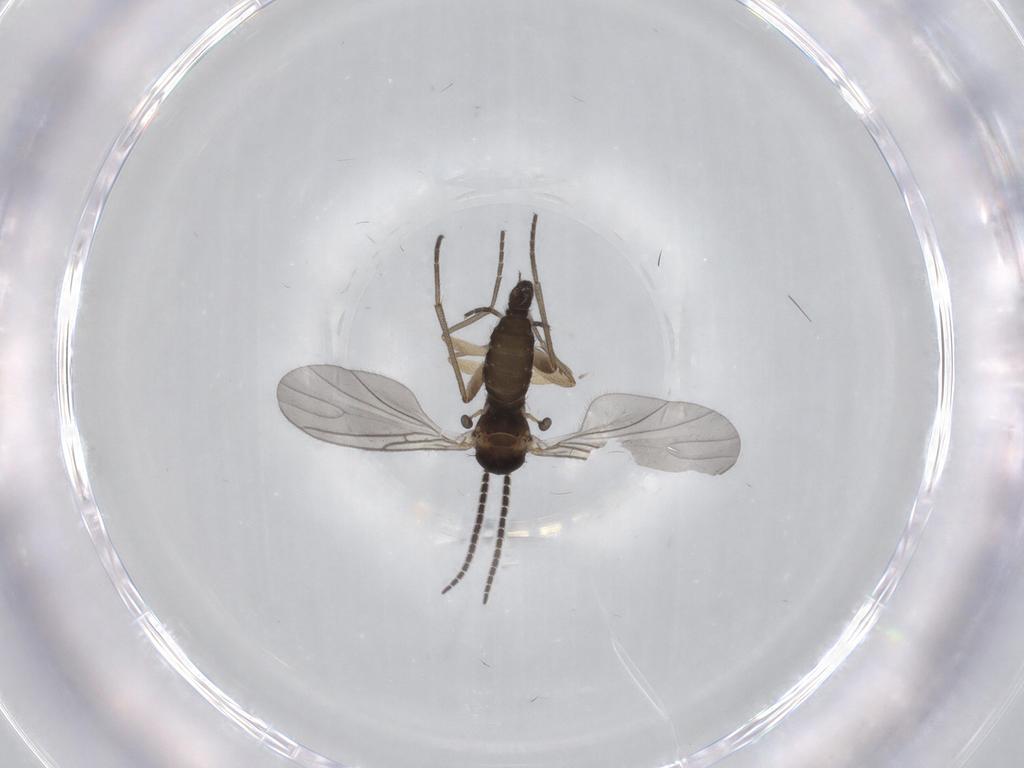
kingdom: Animalia
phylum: Arthropoda
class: Insecta
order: Diptera
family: Sciaridae
